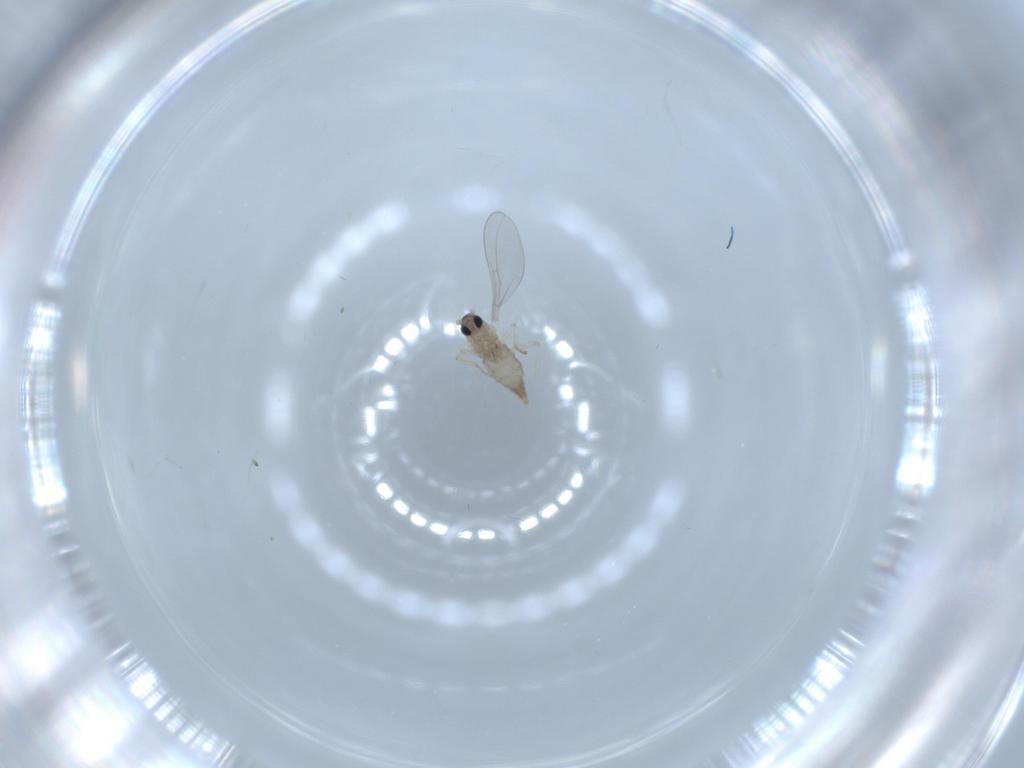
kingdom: Animalia
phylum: Arthropoda
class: Insecta
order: Diptera
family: Cecidomyiidae
